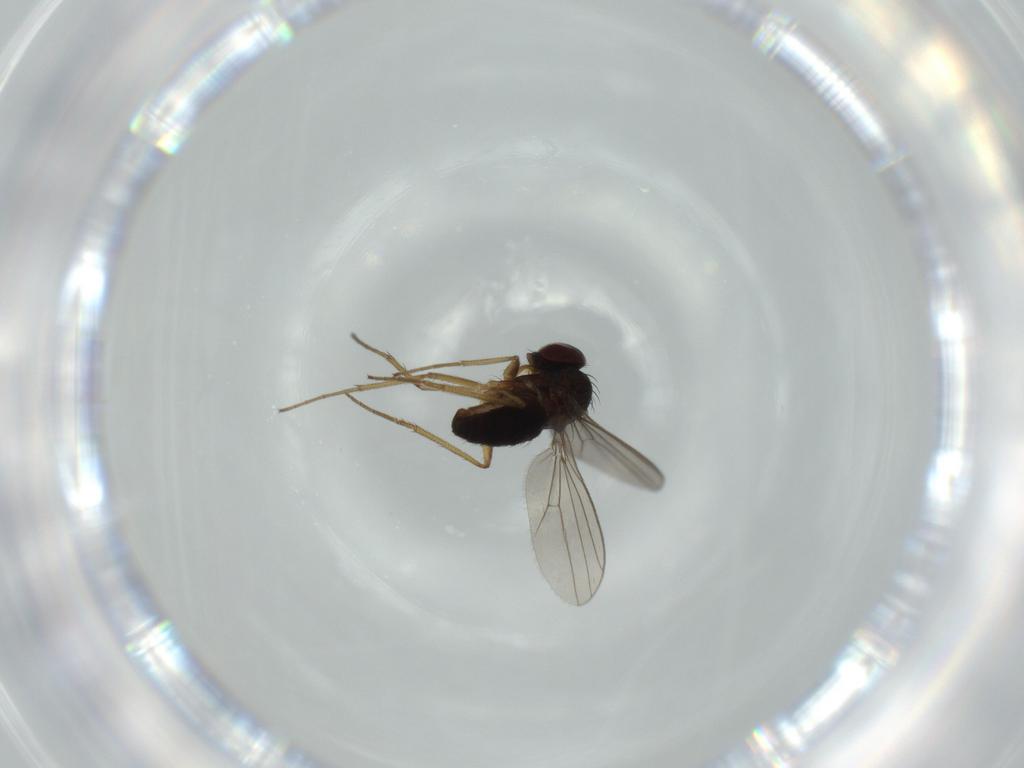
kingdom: Animalia
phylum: Arthropoda
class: Insecta
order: Diptera
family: Dolichopodidae
